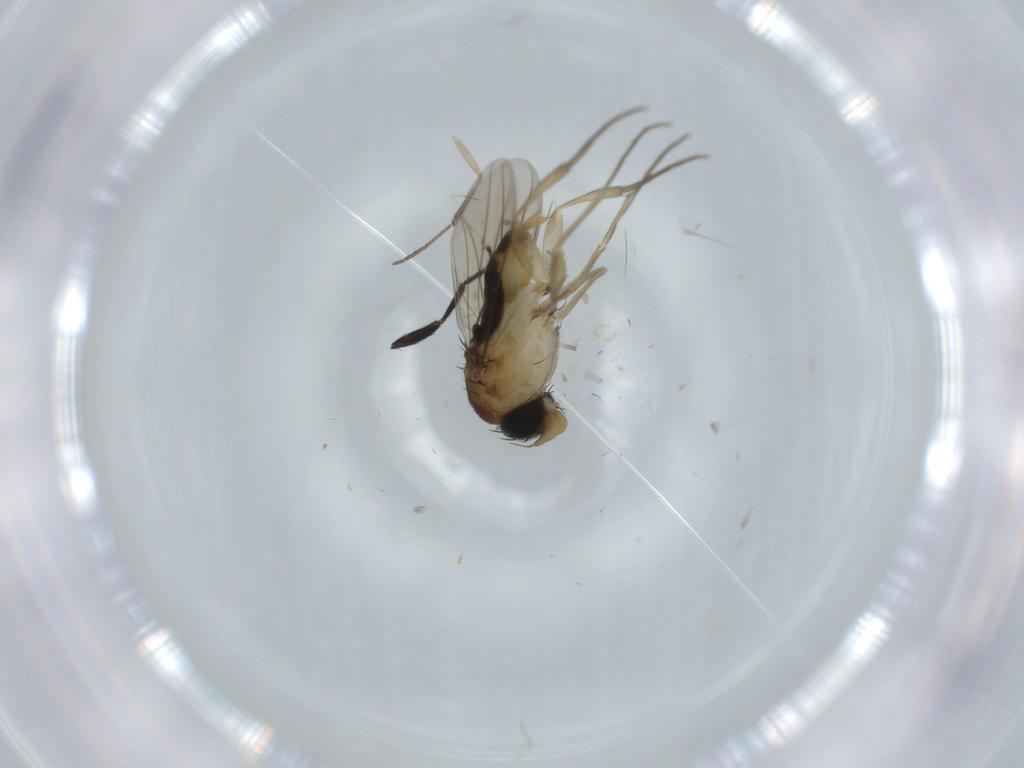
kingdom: Animalia
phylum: Arthropoda
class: Insecta
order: Diptera
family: Phoridae
